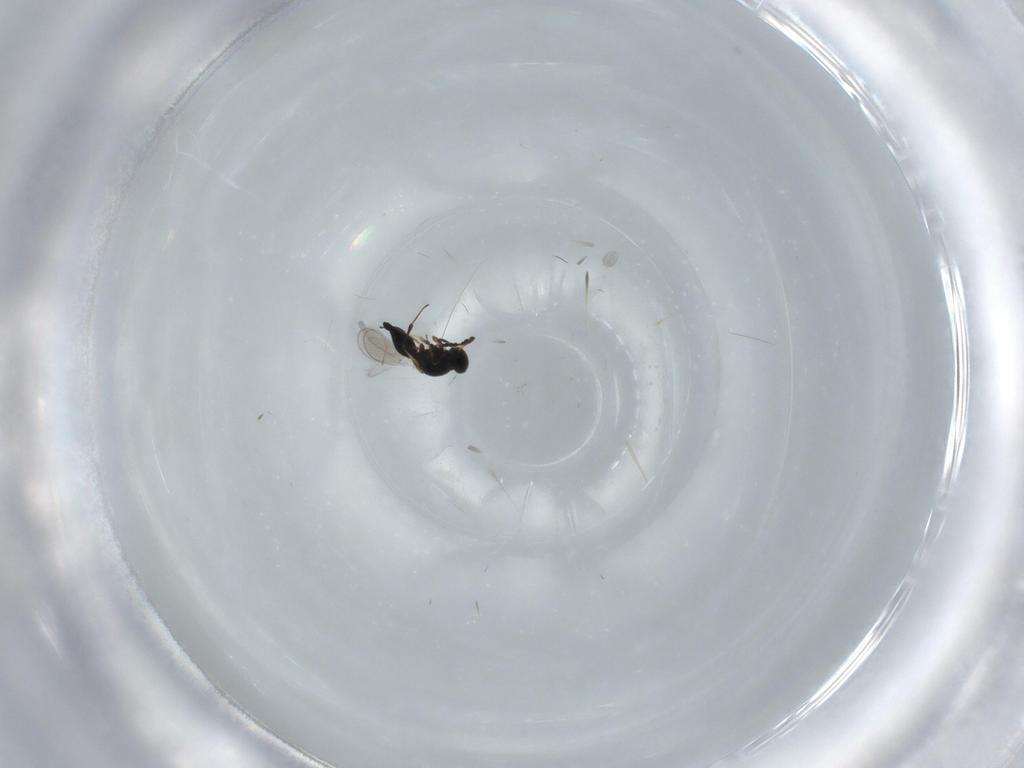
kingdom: Animalia
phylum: Arthropoda
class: Insecta
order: Hymenoptera
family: Platygastridae
